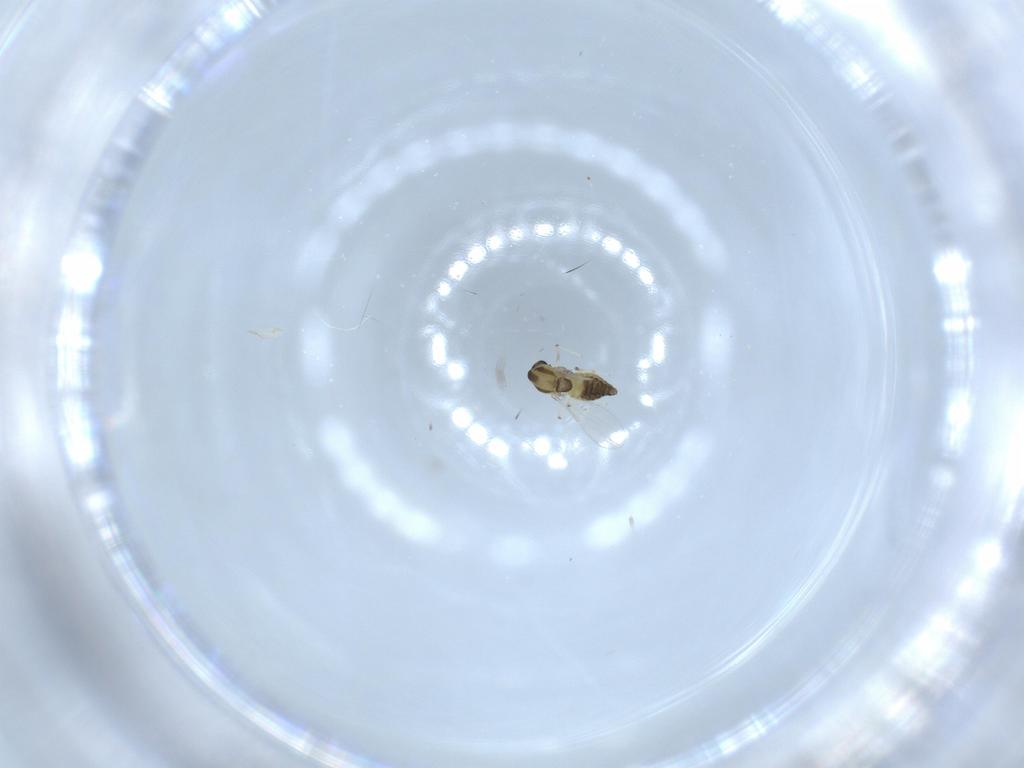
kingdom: Animalia
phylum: Arthropoda
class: Insecta
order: Diptera
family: Chironomidae
